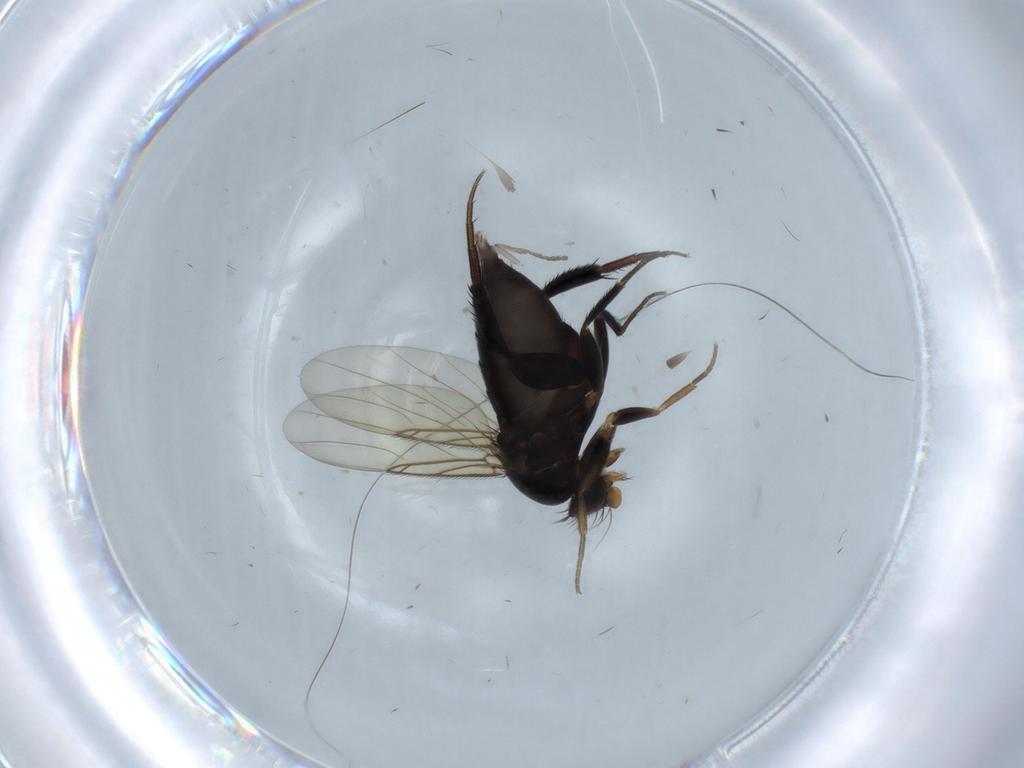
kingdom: Animalia
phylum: Arthropoda
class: Insecta
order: Diptera
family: Phoridae
